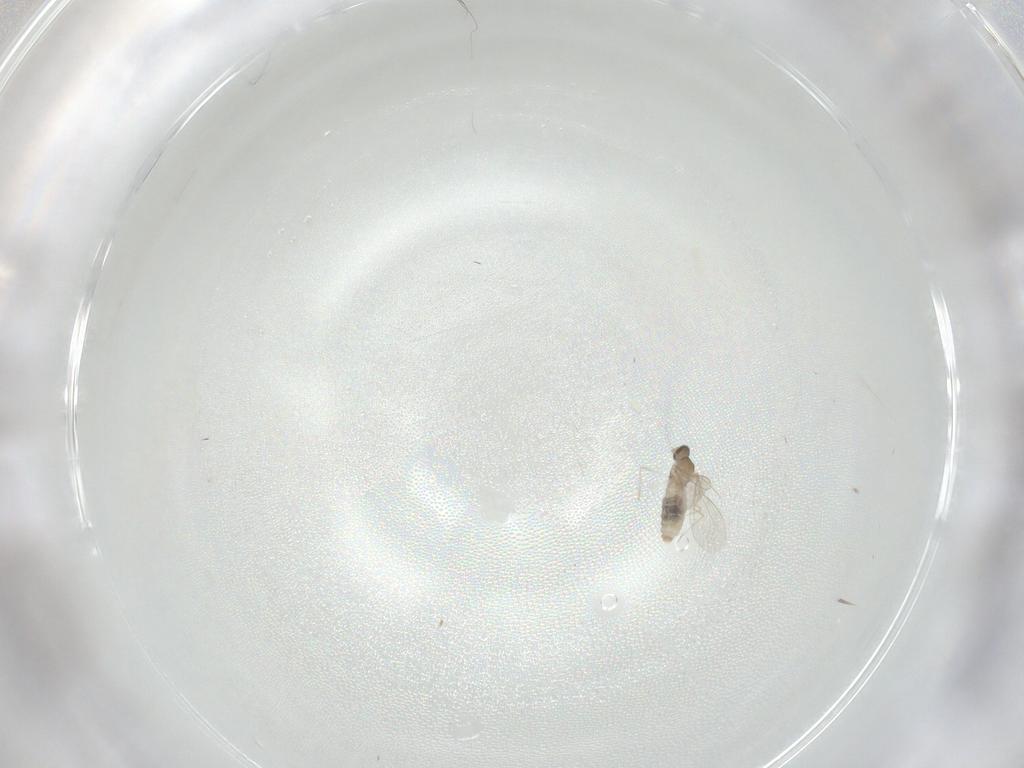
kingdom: Animalia
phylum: Arthropoda
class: Insecta
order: Diptera
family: Cecidomyiidae
